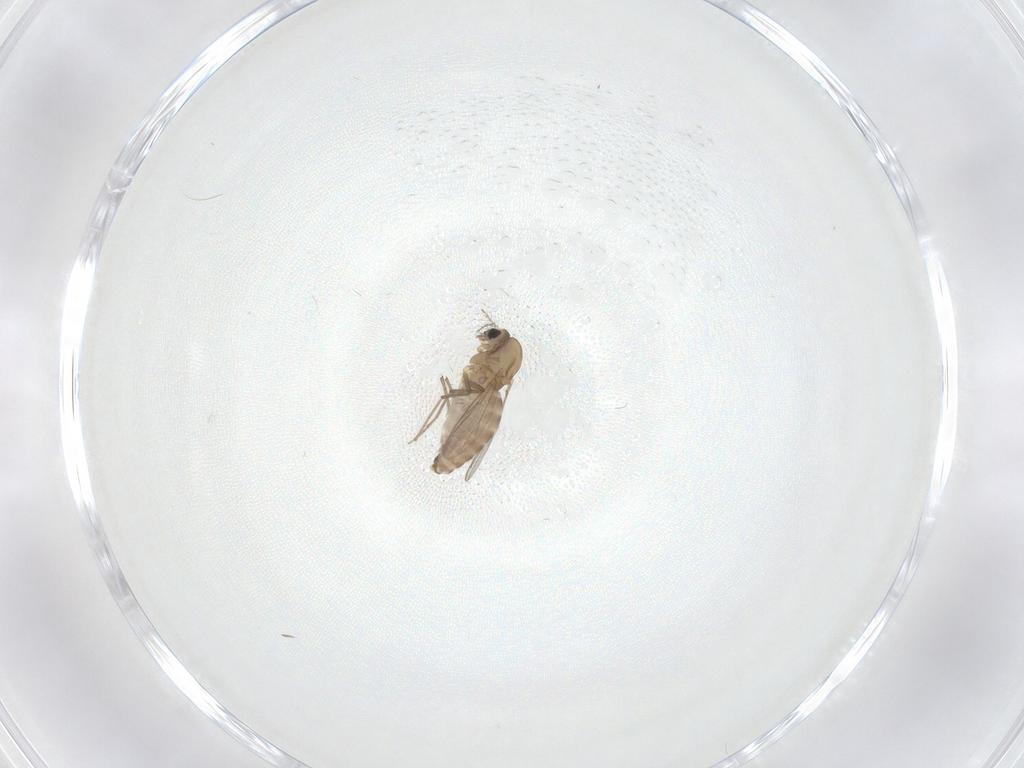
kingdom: Animalia
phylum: Arthropoda
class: Insecta
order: Diptera
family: Chironomidae
